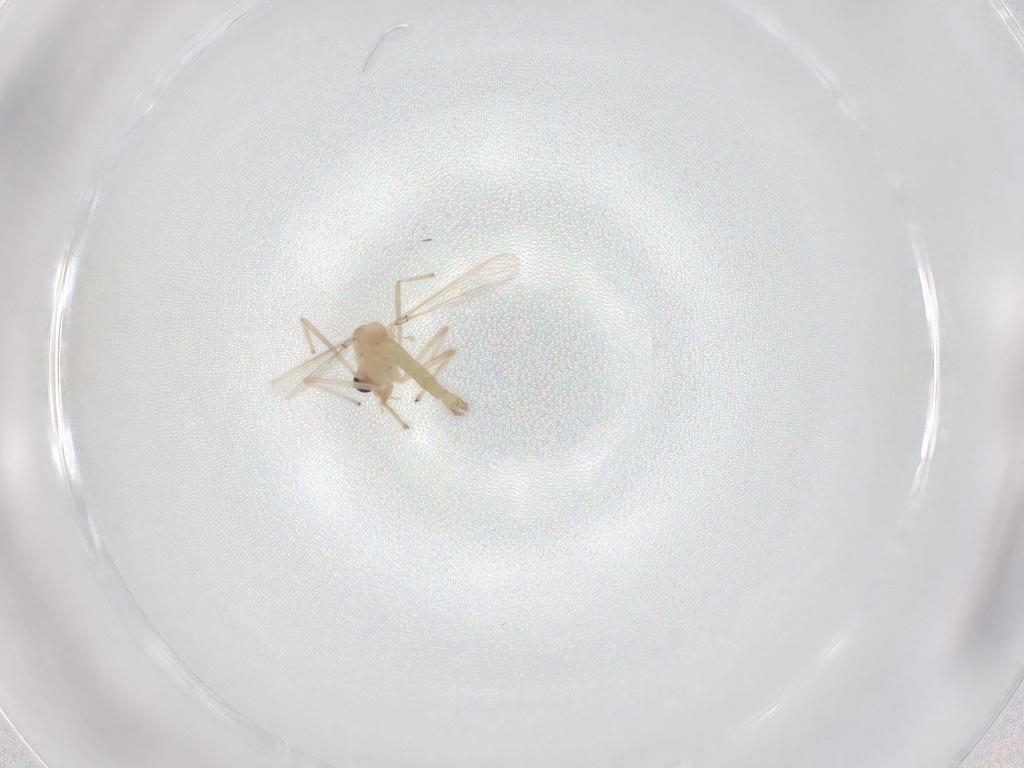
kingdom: Animalia
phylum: Arthropoda
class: Insecta
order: Diptera
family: Chironomidae
